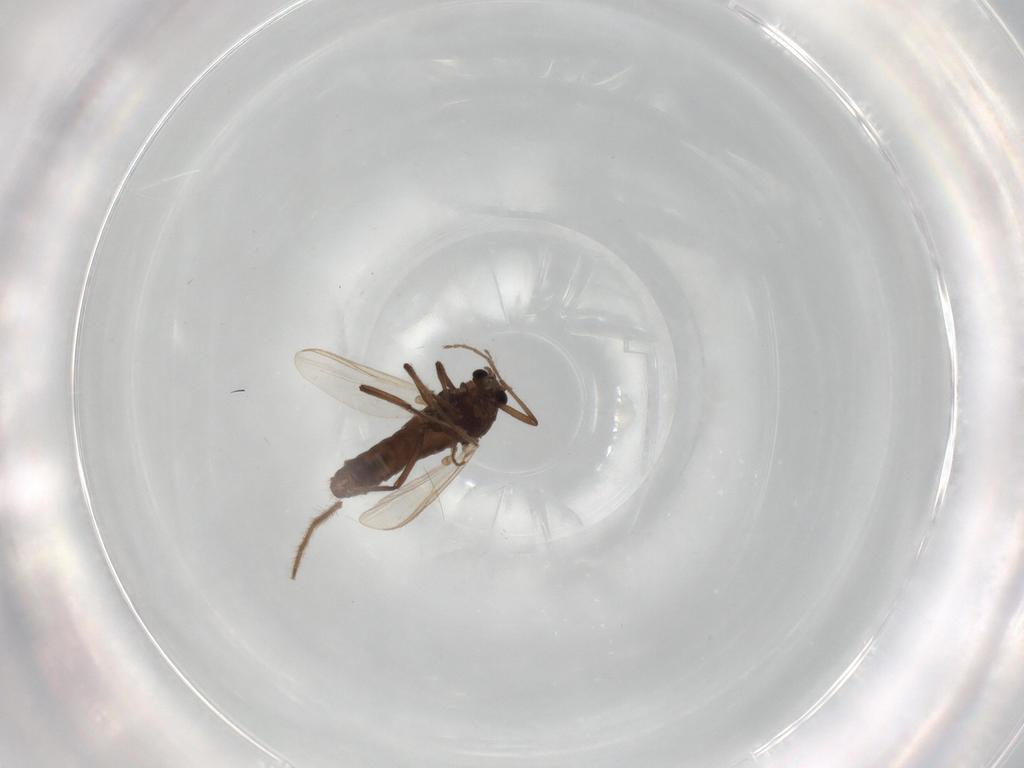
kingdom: Animalia
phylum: Arthropoda
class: Insecta
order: Diptera
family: Chironomidae
